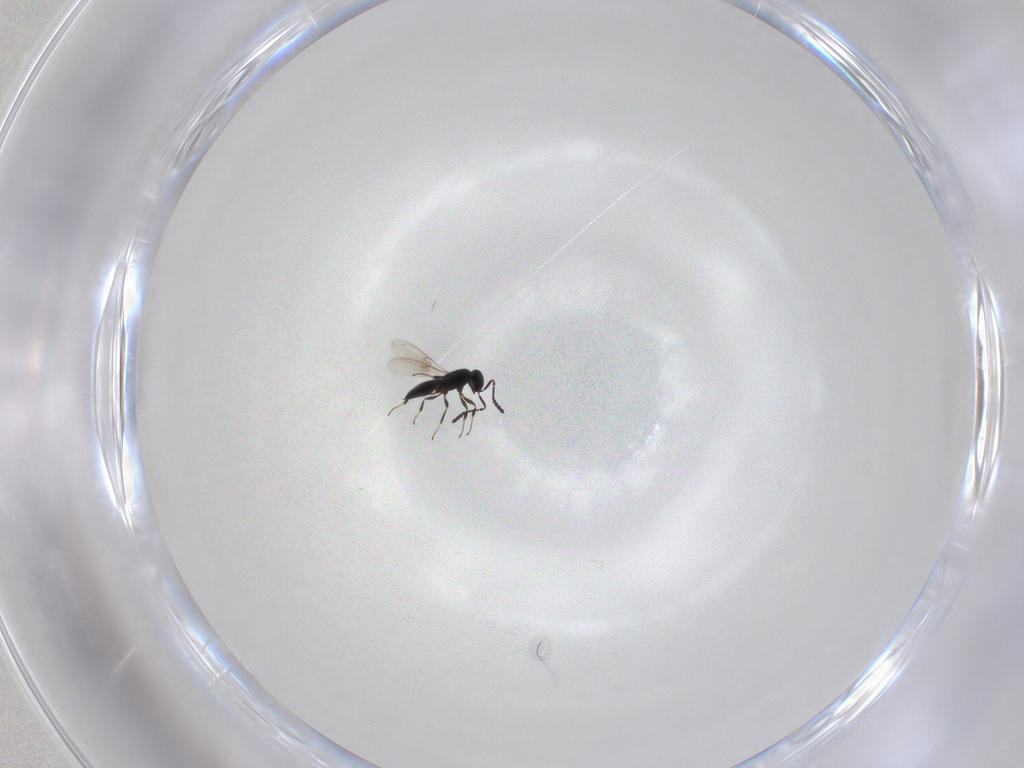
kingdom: Animalia
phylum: Arthropoda
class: Insecta
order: Hymenoptera
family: Scelionidae
